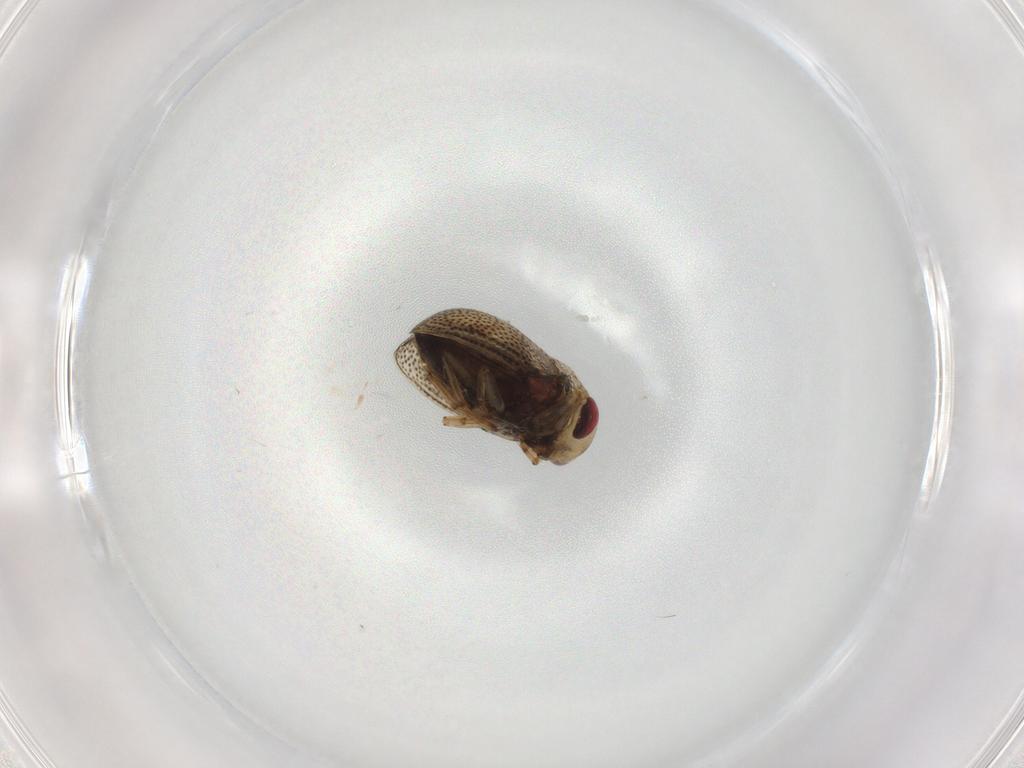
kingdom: Animalia
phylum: Arthropoda
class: Insecta
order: Hemiptera
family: Pleidae
